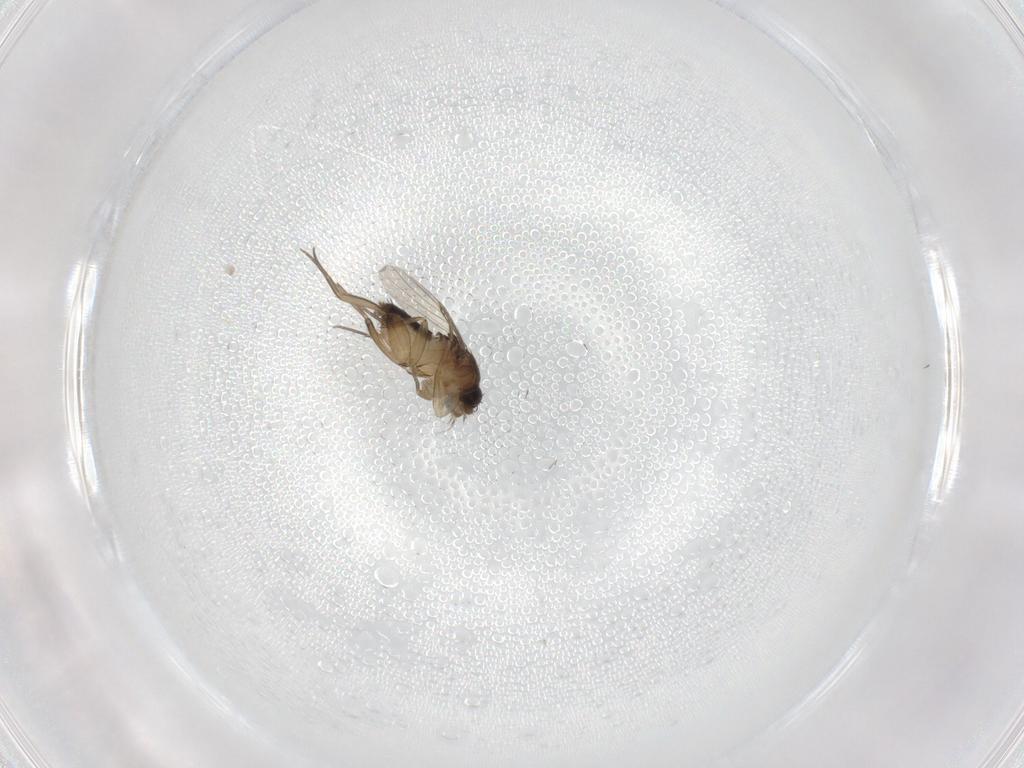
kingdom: Animalia
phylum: Arthropoda
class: Insecta
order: Diptera
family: Phoridae
